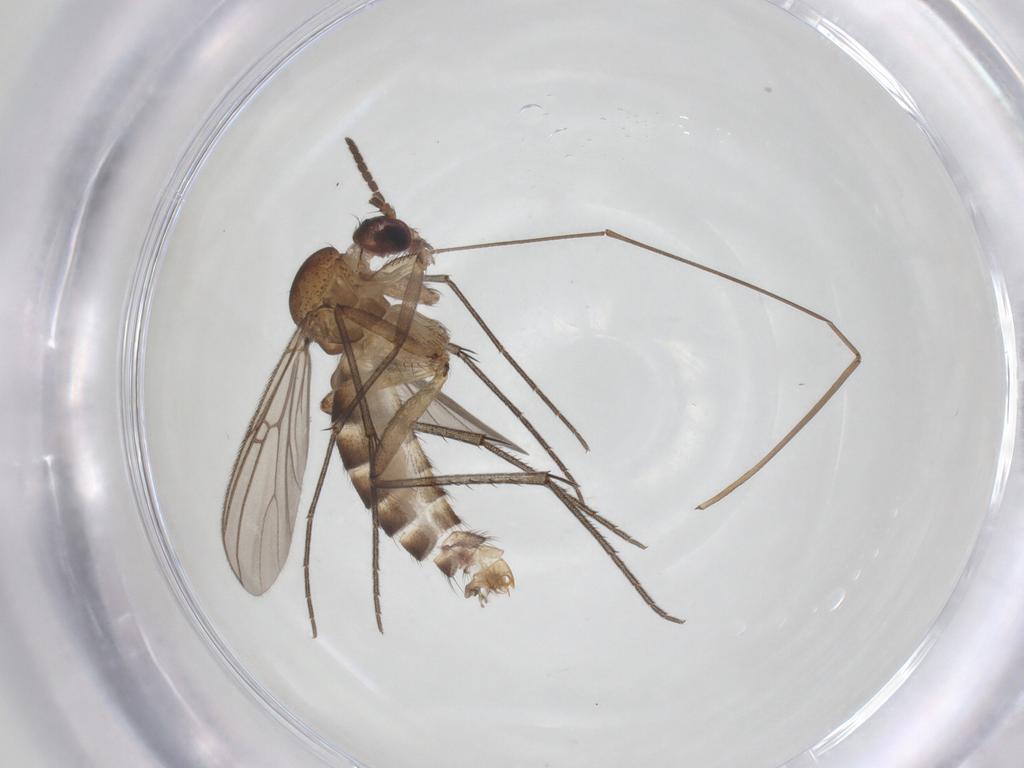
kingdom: Animalia
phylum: Arthropoda
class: Insecta
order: Diptera
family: Mycetophilidae
